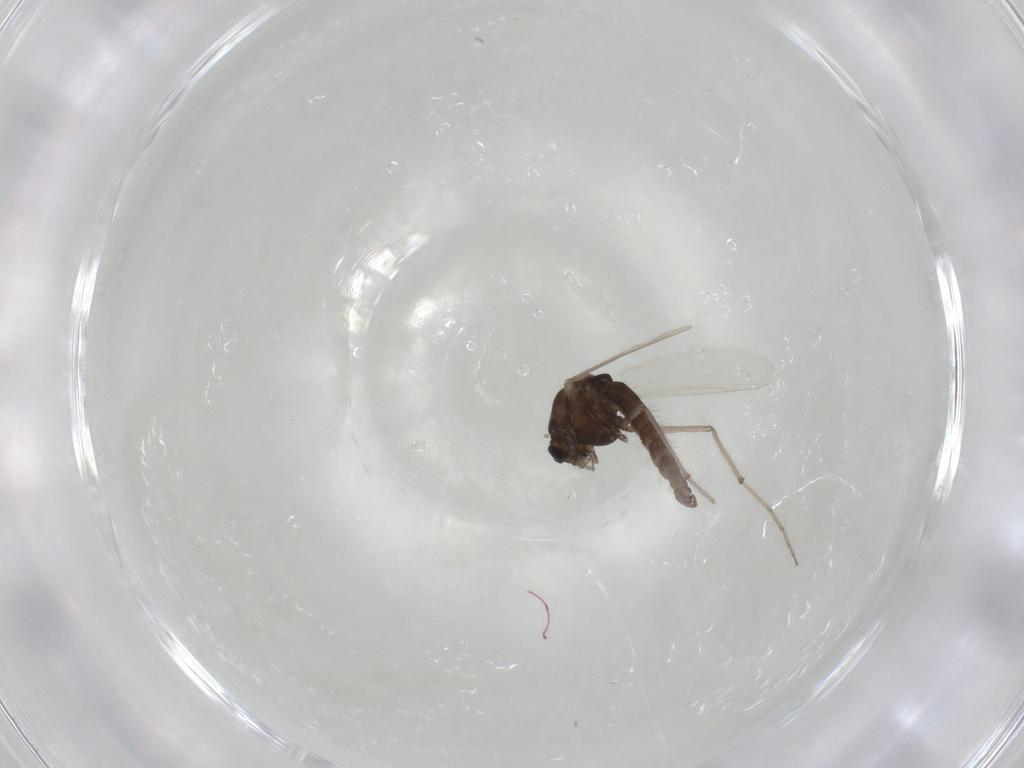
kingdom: Animalia
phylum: Arthropoda
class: Insecta
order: Diptera
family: Chironomidae
